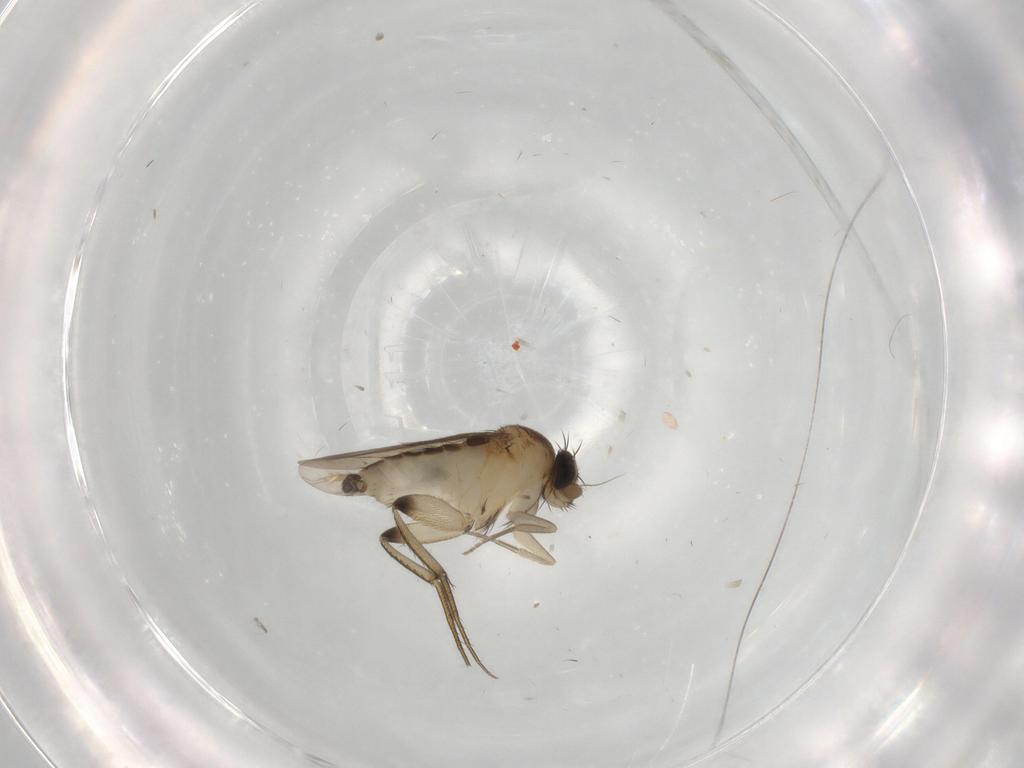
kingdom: Animalia
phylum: Arthropoda
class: Insecta
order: Diptera
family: Phoridae
